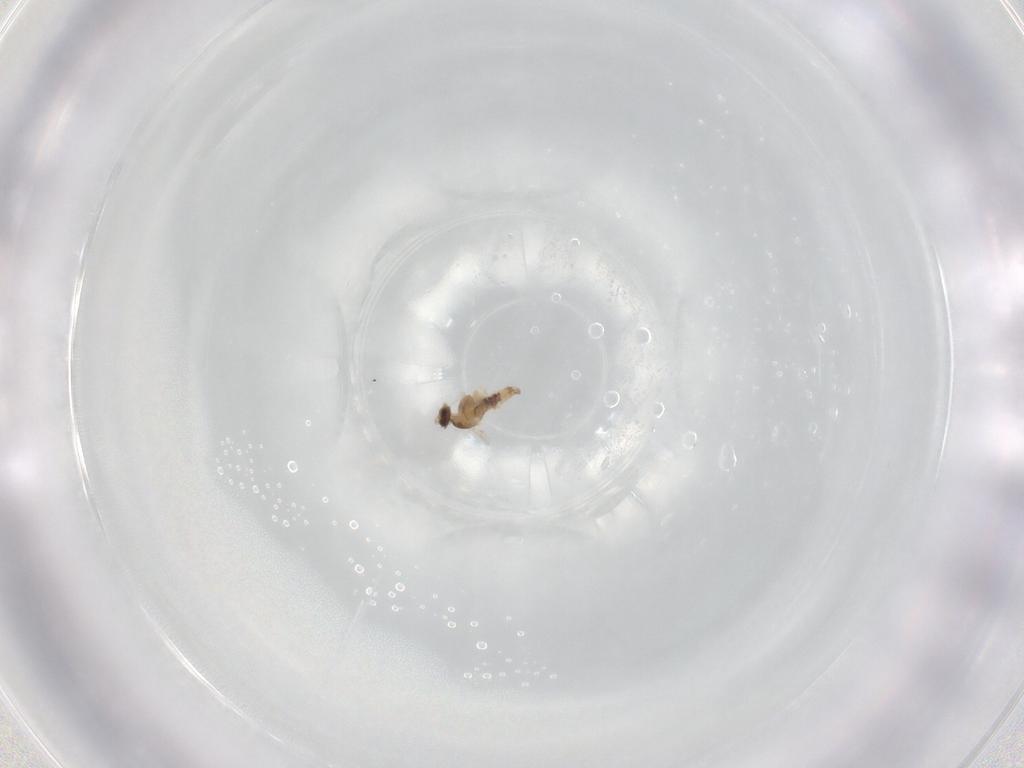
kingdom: Animalia
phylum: Arthropoda
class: Insecta
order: Diptera
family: Cecidomyiidae
